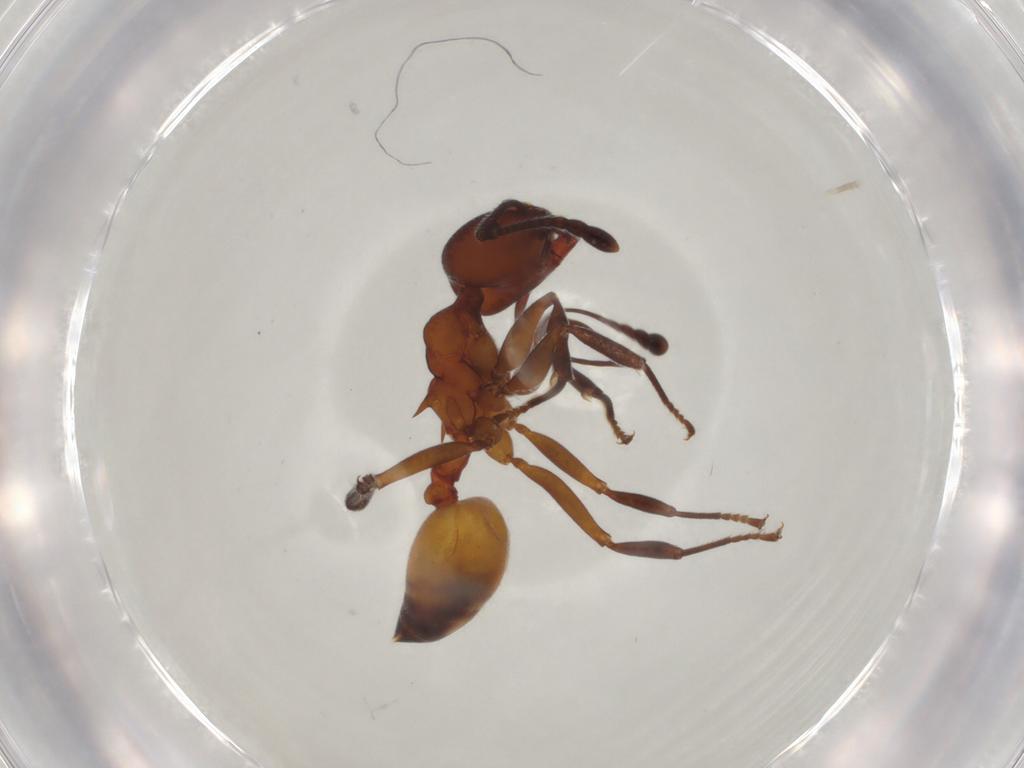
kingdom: Animalia
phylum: Arthropoda
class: Insecta
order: Hymenoptera
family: Formicidae
